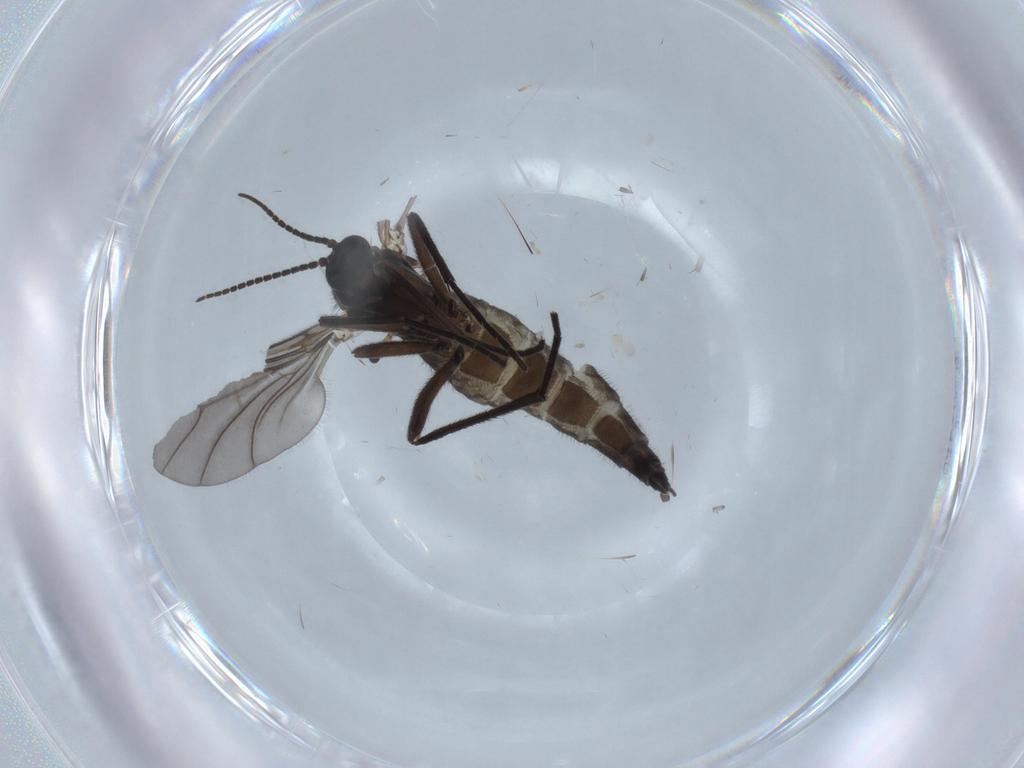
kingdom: Animalia
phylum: Arthropoda
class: Insecta
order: Diptera
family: Sciaridae
